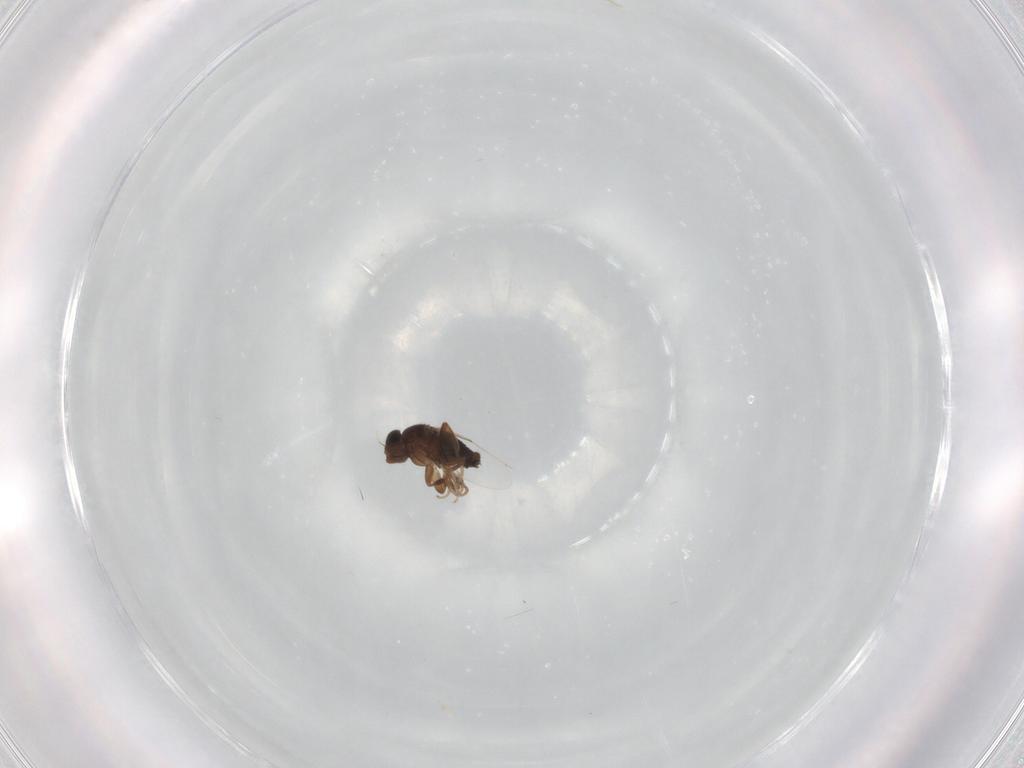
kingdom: Animalia
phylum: Arthropoda
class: Insecta
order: Diptera
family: Phoridae
